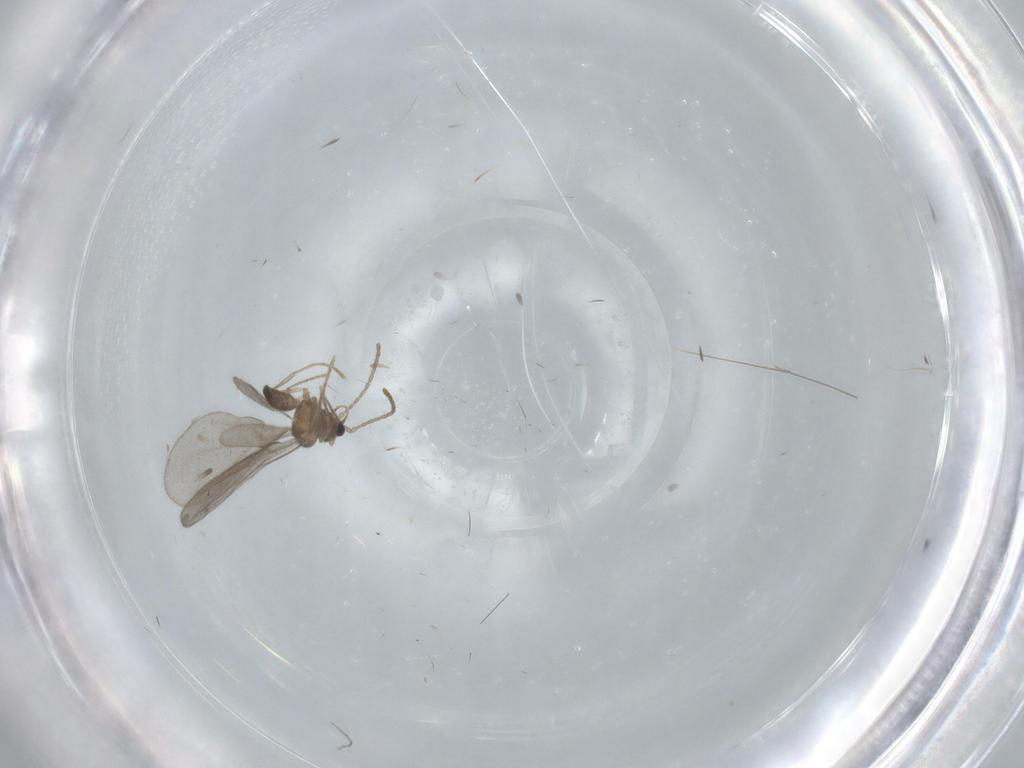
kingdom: Animalia
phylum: Arthropoda
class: Insecta
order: Hymenoptera
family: Formicidae
